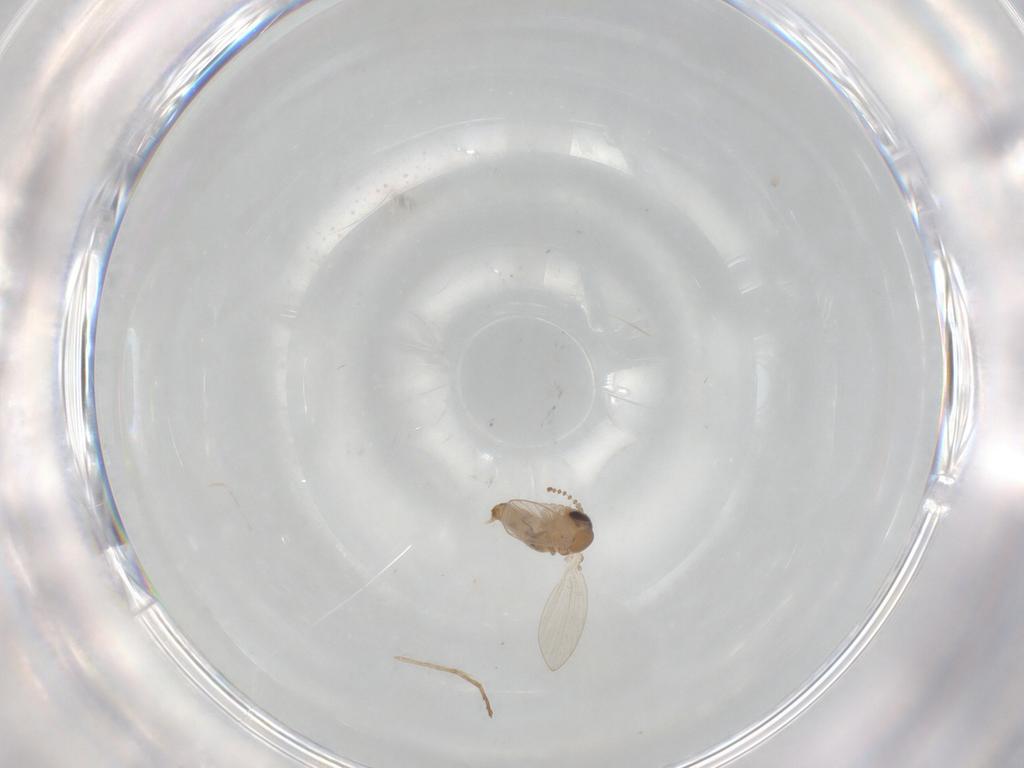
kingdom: Animalia
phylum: Arthropoda
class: Insecta
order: Diptera
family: Psychodidae
